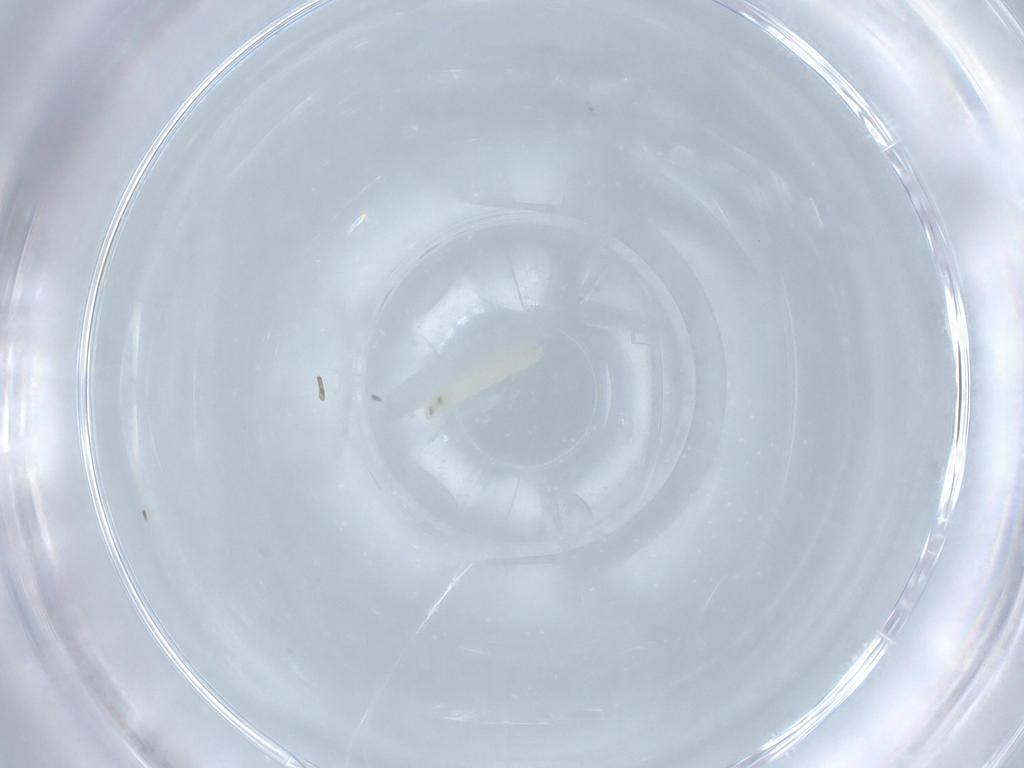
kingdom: Animalia
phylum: Arthropoda
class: Insecta
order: Diptera
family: Sarcophagidae
